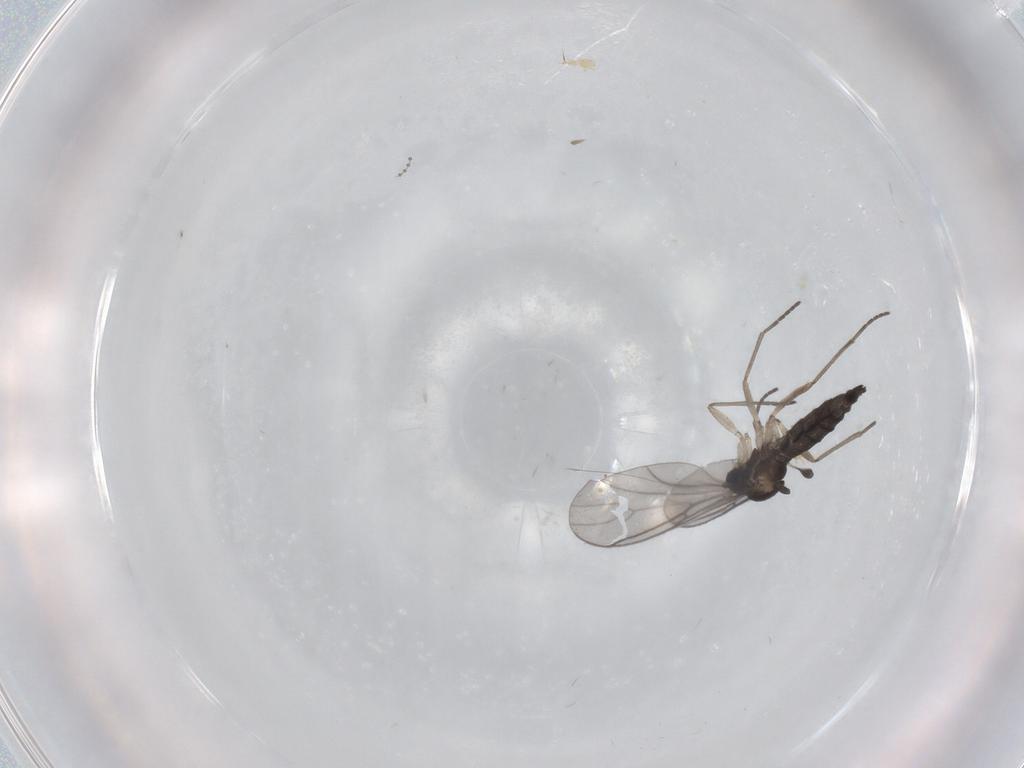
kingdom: Animalia
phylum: Arthropoda
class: Insecta
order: Diptera
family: Sciaridae
